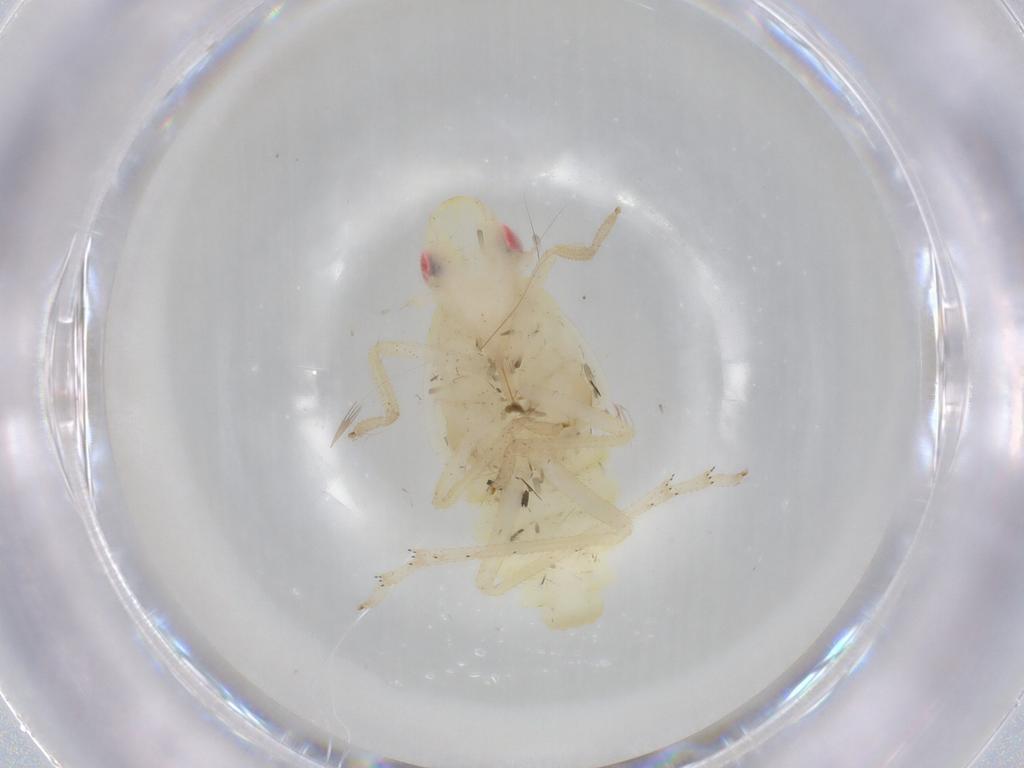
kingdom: Animalia
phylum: Arthropoda
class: Insecta
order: Hemiptera
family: Tropiduchidae
